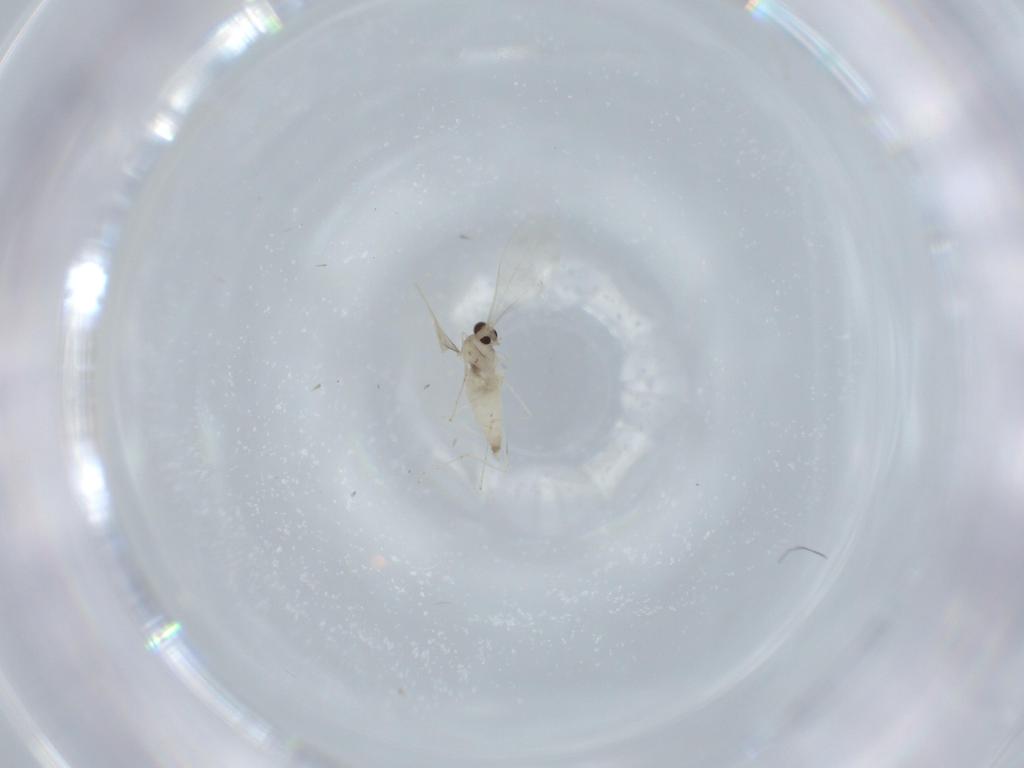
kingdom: Animalia
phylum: Arthropoda
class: Insecta
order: Diptera
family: Cecidomyiidae
